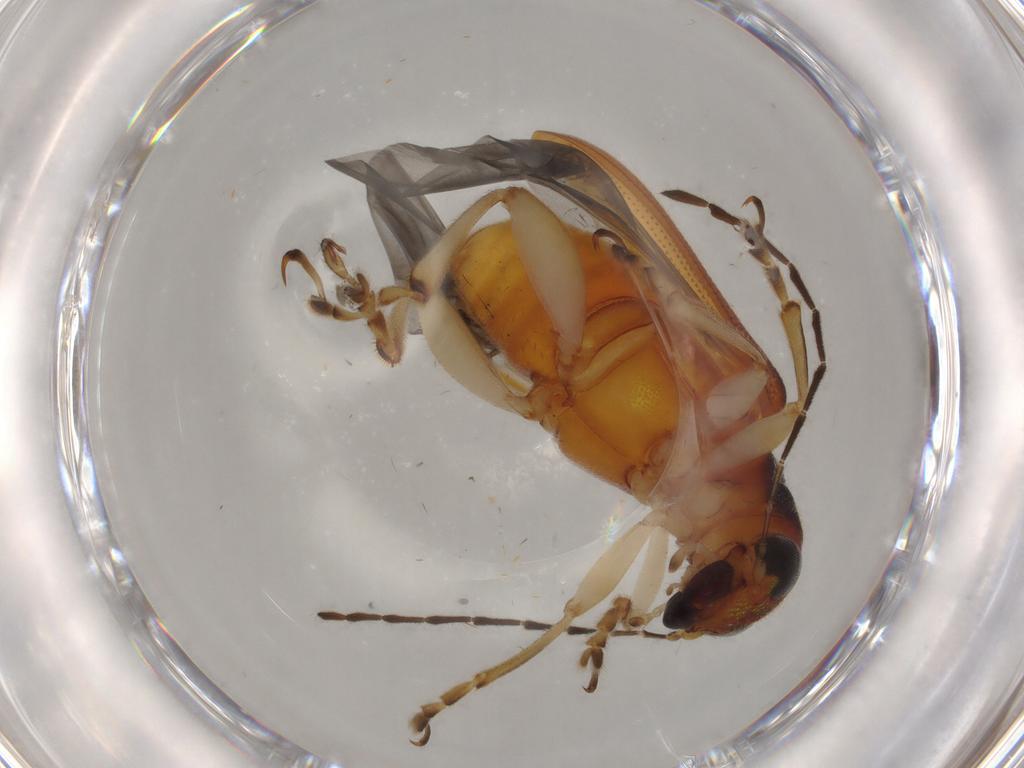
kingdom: Animalia
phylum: Arthropoda
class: Insecta
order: Coleoptera
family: Chrysomelidae
